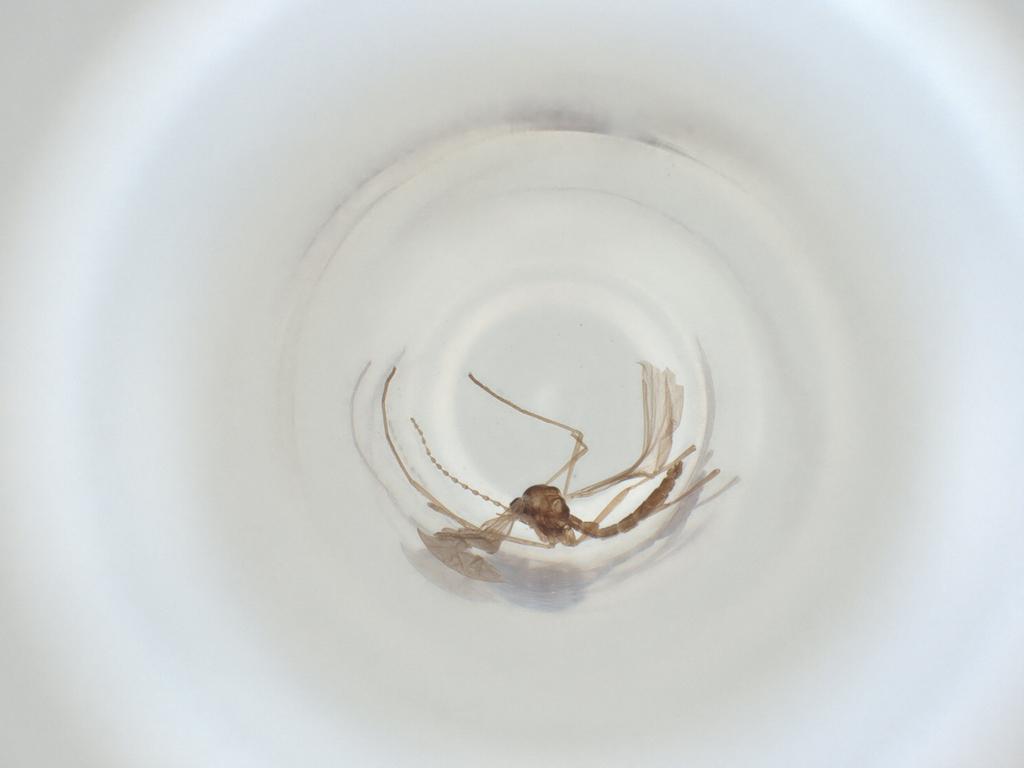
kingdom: Animalia
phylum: Arthropoda
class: Insecta
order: Diptera
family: Cecidomyiidae
